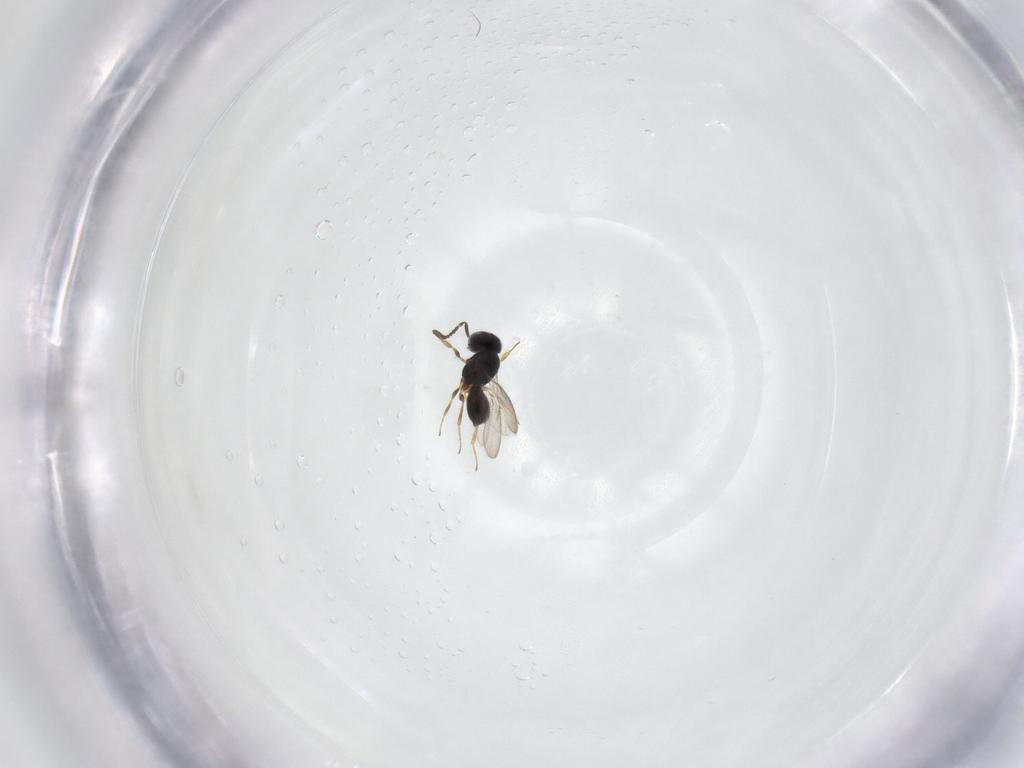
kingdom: Animalia
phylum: Arthropoda
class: Insecta
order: Hymenoptera
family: Scelionidae
